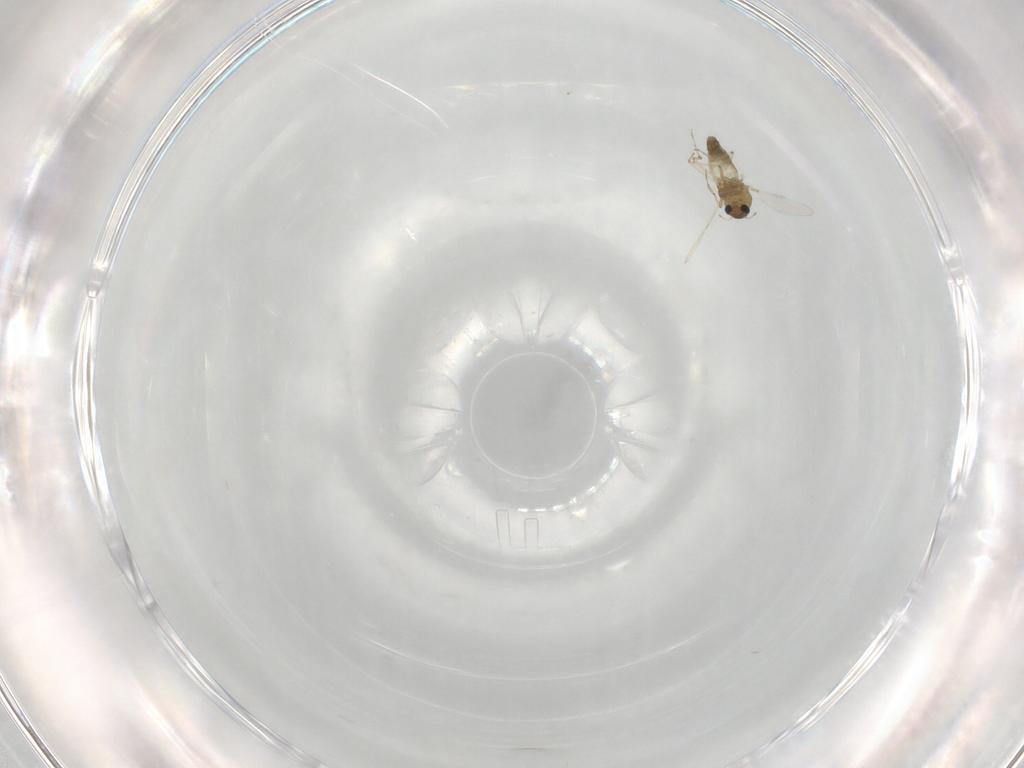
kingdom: Animalia
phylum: Arthropoda
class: Insecta
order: Diptera
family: Chironomidae
